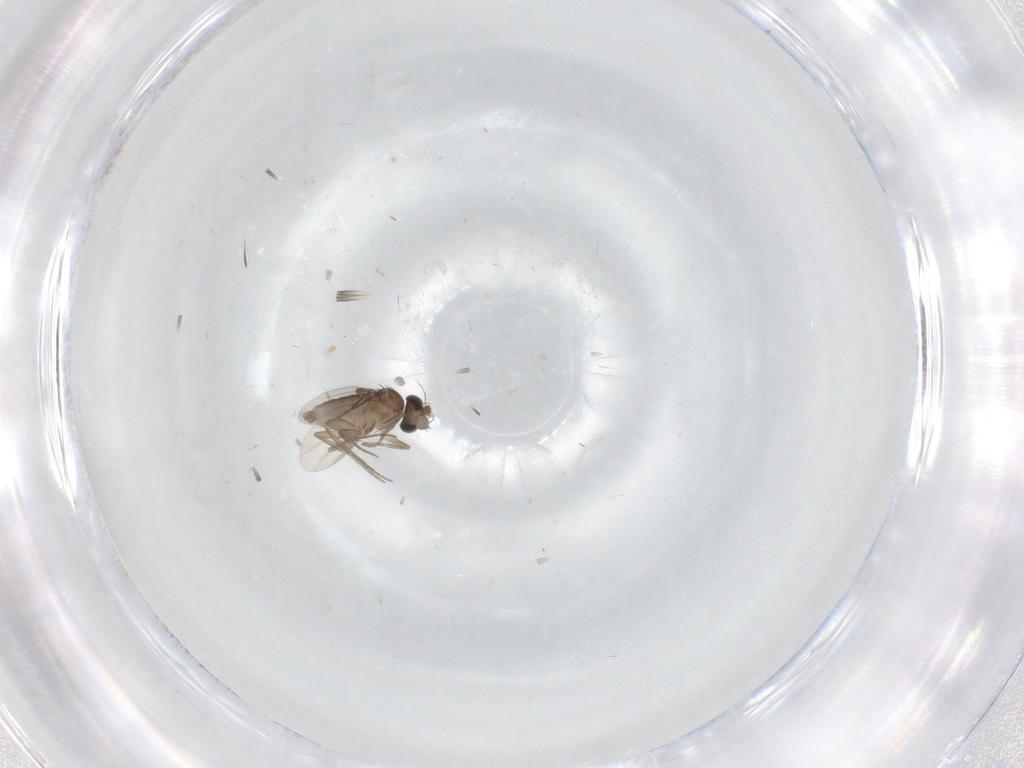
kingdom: Animalia
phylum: Arthropoda
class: Insecta
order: Diptera
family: Phoridae
